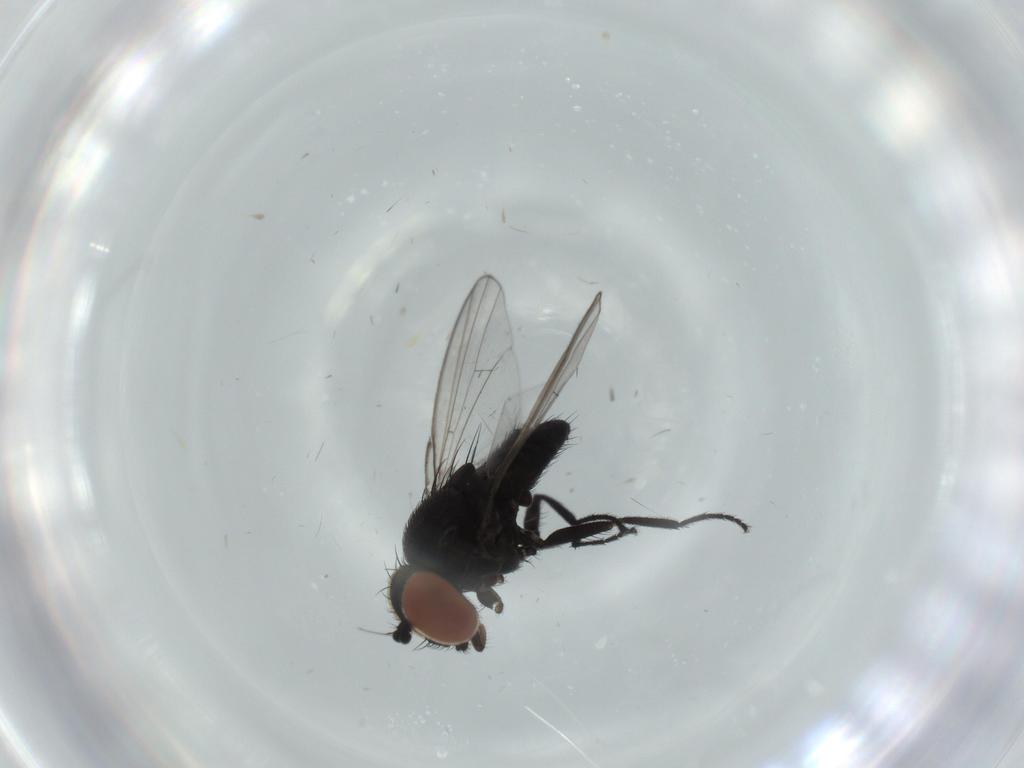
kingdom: Animalia
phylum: Arthropoda
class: Insecta
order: Diptera
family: Milichiidae
